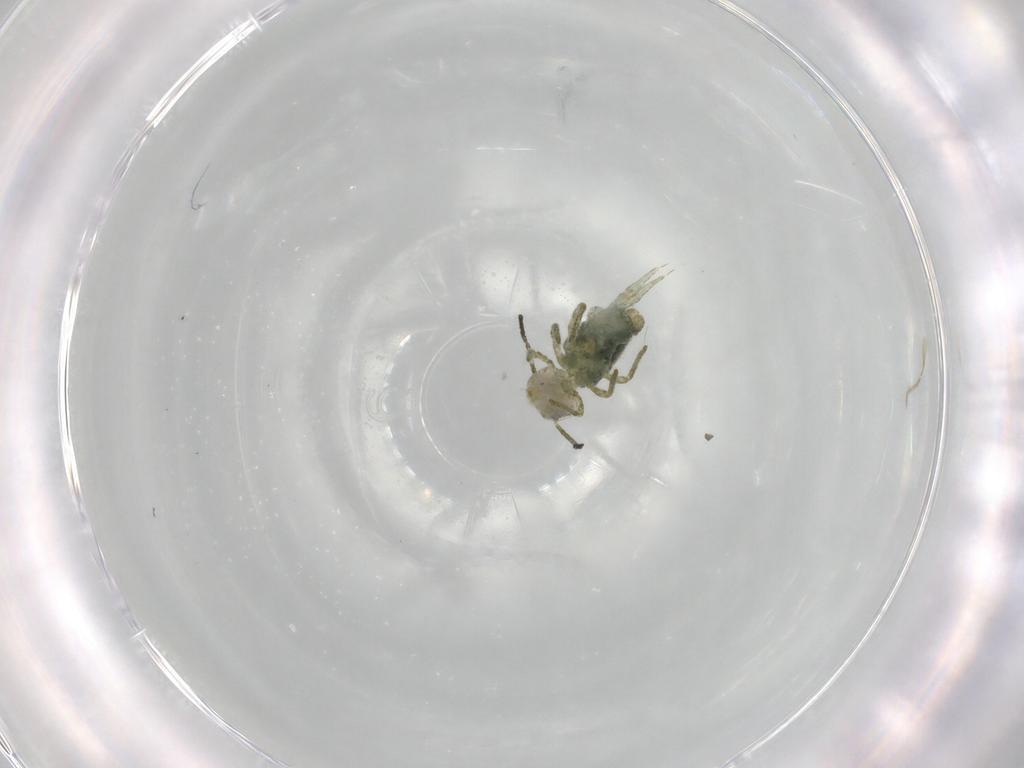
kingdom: Animalia
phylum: Arthropoda
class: Collembola
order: Symphypleona
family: Sminthuridae
